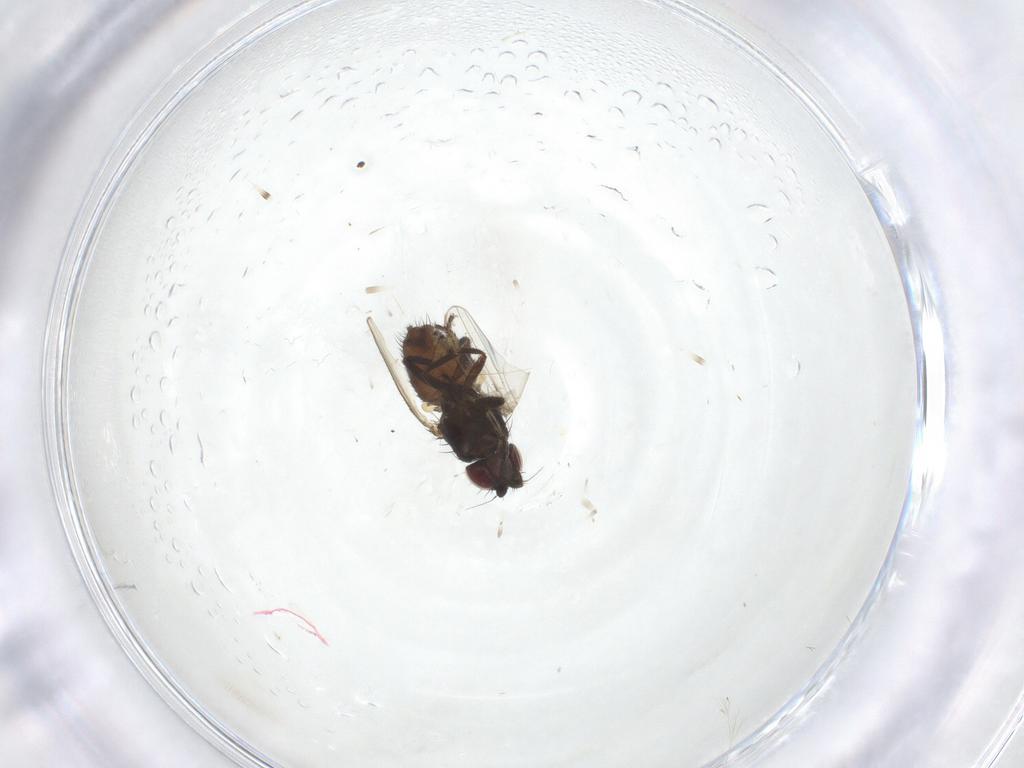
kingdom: Animalia
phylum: Arthropoda
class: Insecta
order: Diptera
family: Milichiidae
